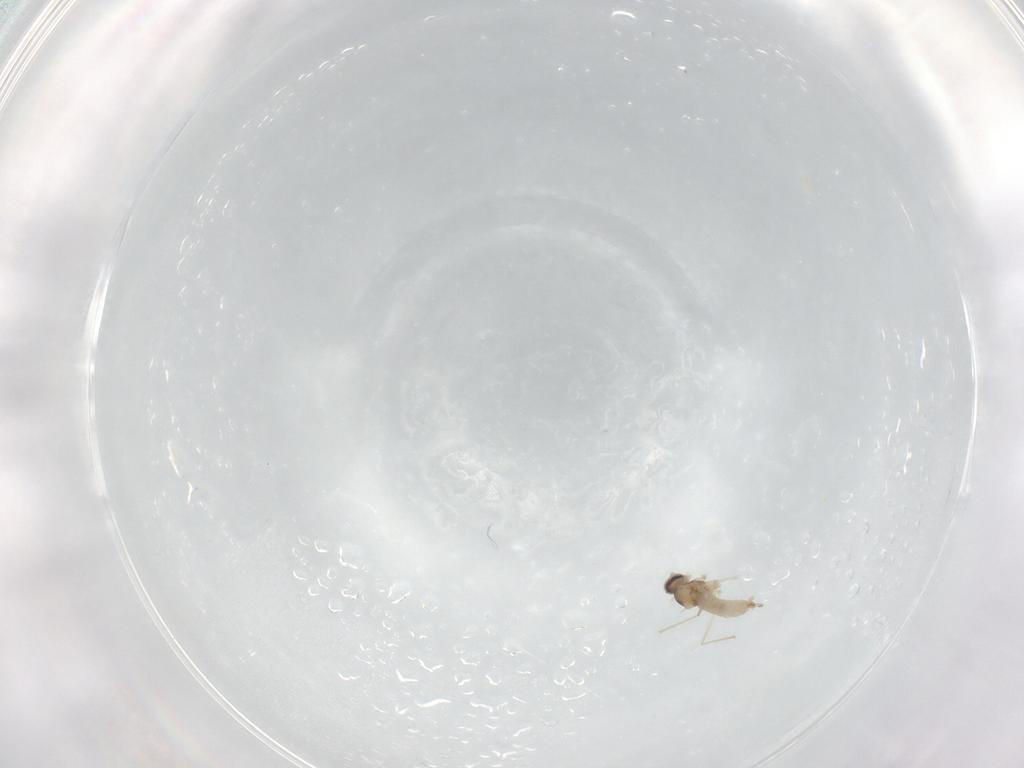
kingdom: Animalia
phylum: Arthropoda
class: Insecta
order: Diptera
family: Cecidomyiidae
